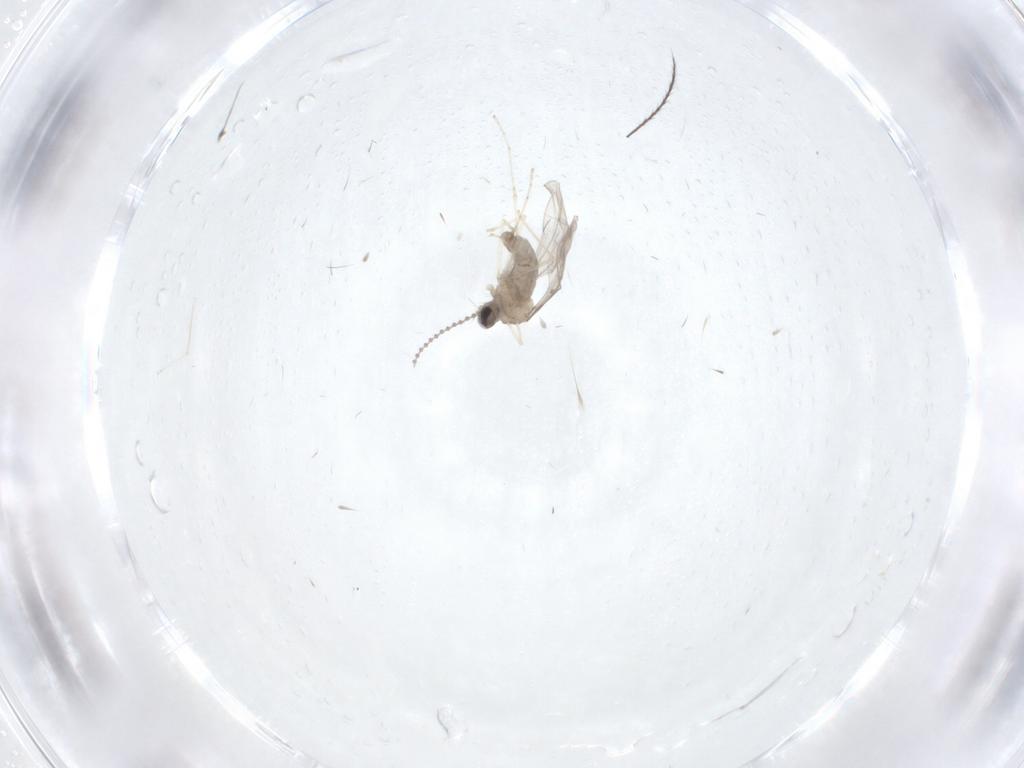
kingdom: Animalia
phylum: Arthropoda
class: Insecta
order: Diptera
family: Cecidomyiidae
